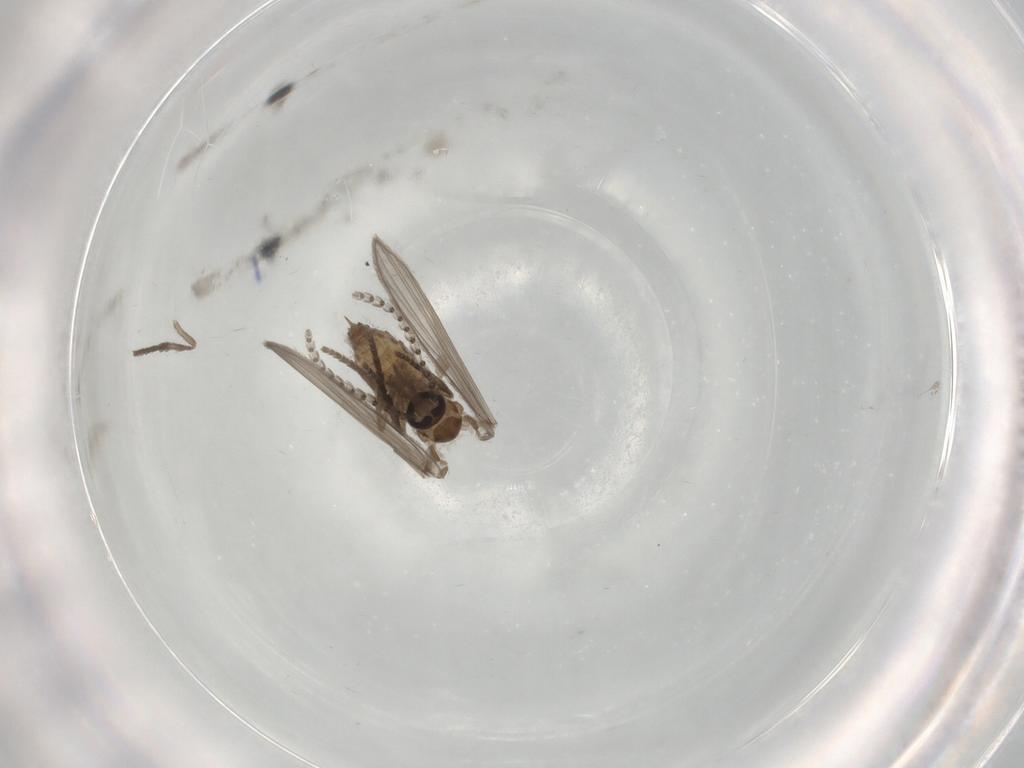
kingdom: Animalia
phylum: Arthropoda
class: Insecta
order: Diptera
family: Psychodidae
